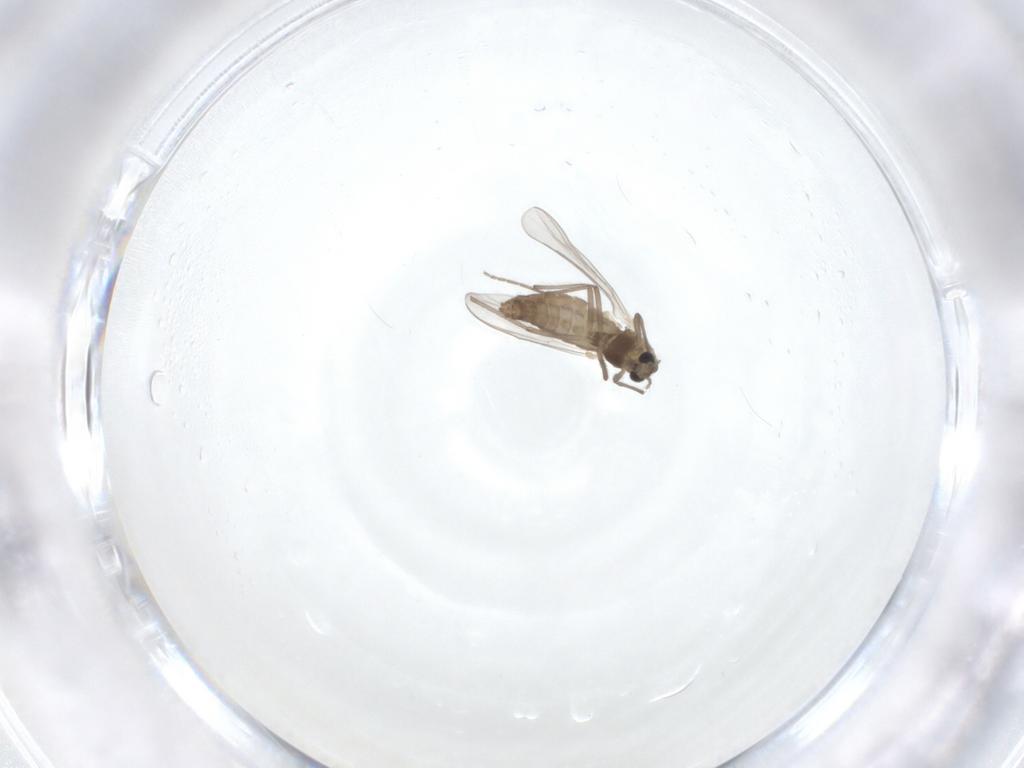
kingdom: Animalia
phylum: Arthropoda
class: Insecta
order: Diptera
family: Chironomidae
